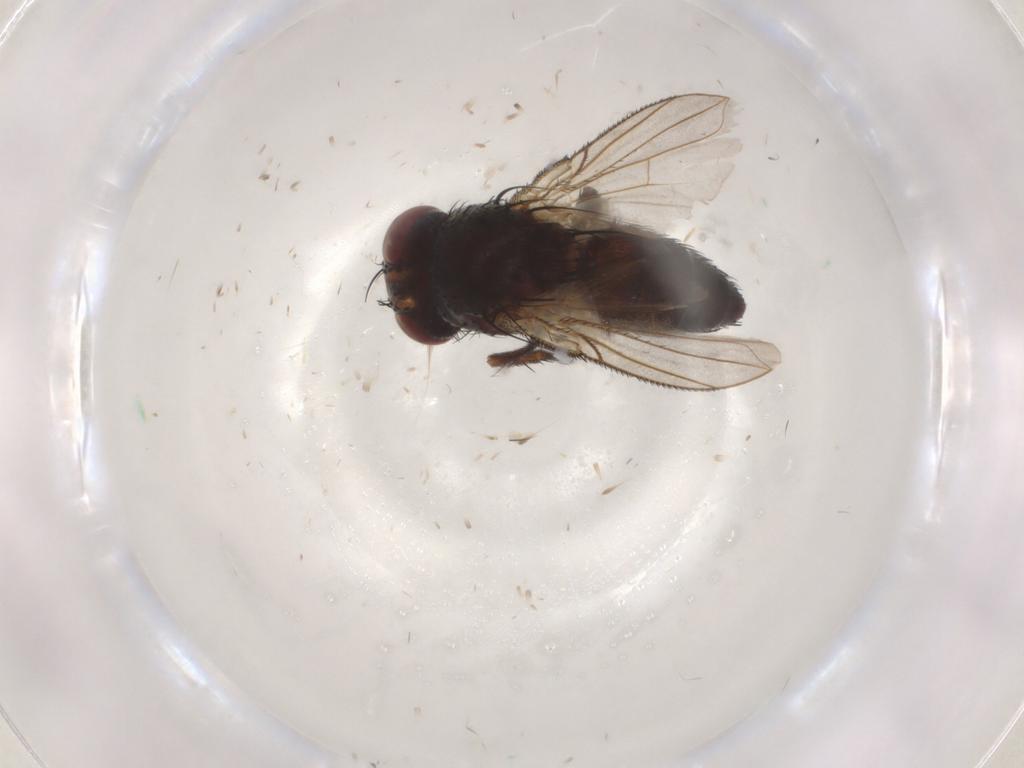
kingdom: Animalia
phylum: Arthropoda
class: Insecta
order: Diptera
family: Tachinidae
